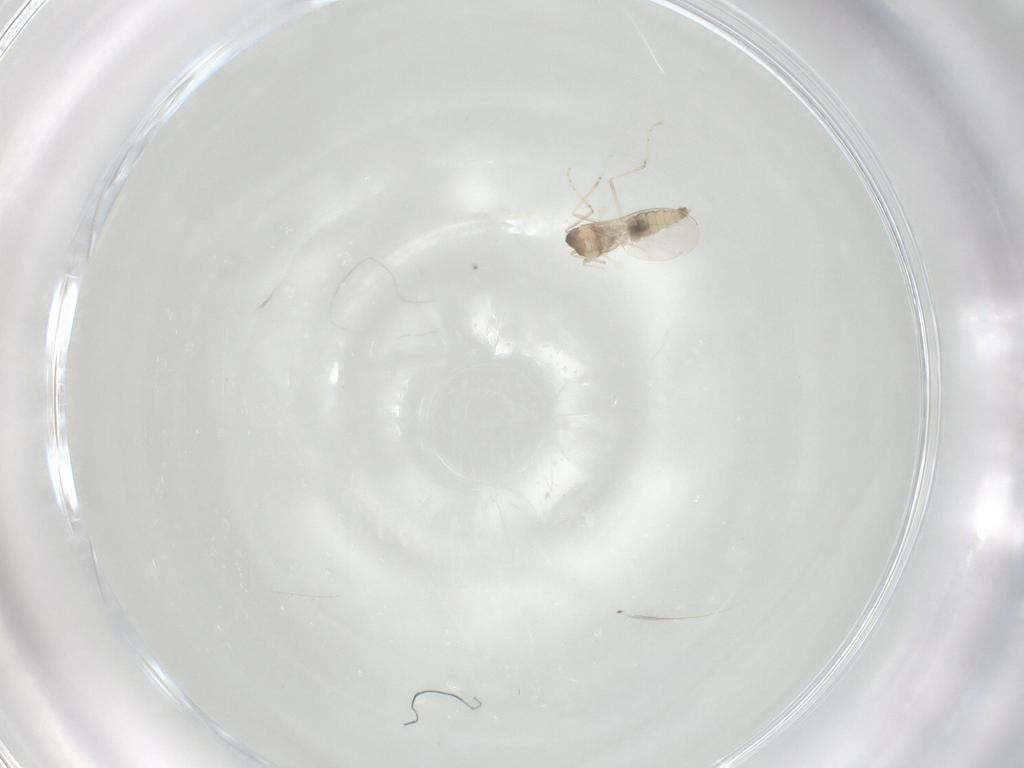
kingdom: Animalia
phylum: Arthropoda
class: Insecta
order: Diptera
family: Cecidomyiidae
